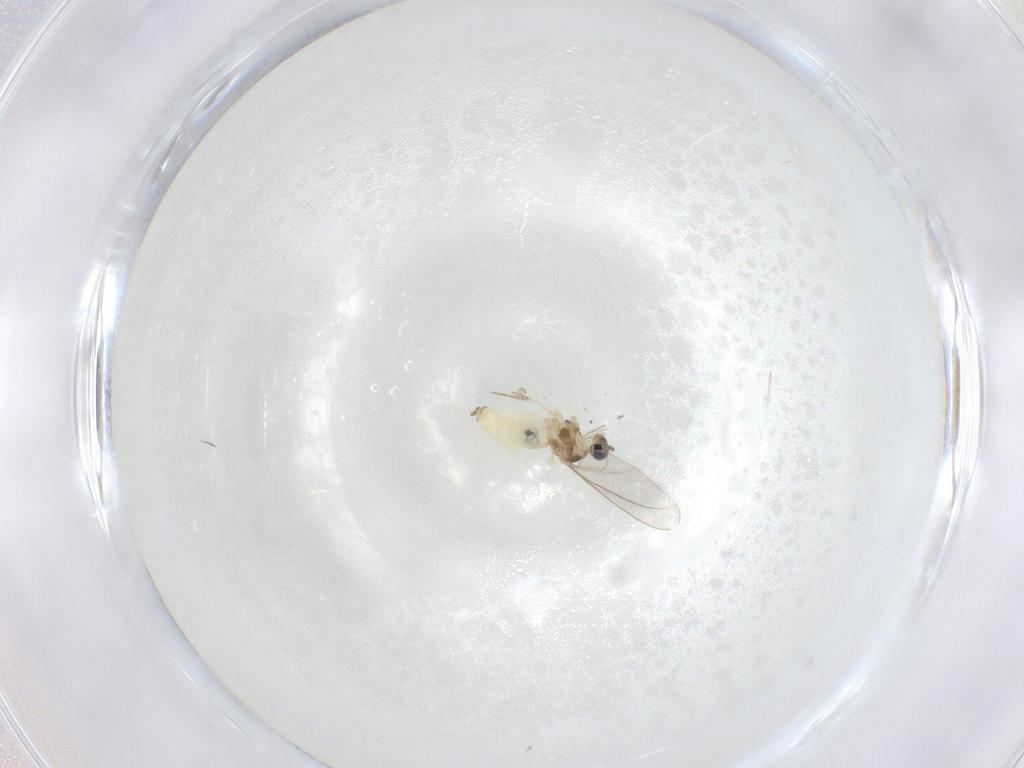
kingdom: Animalia
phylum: Arthropoda
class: Insecta
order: Diptera
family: Cecidomyiidae
